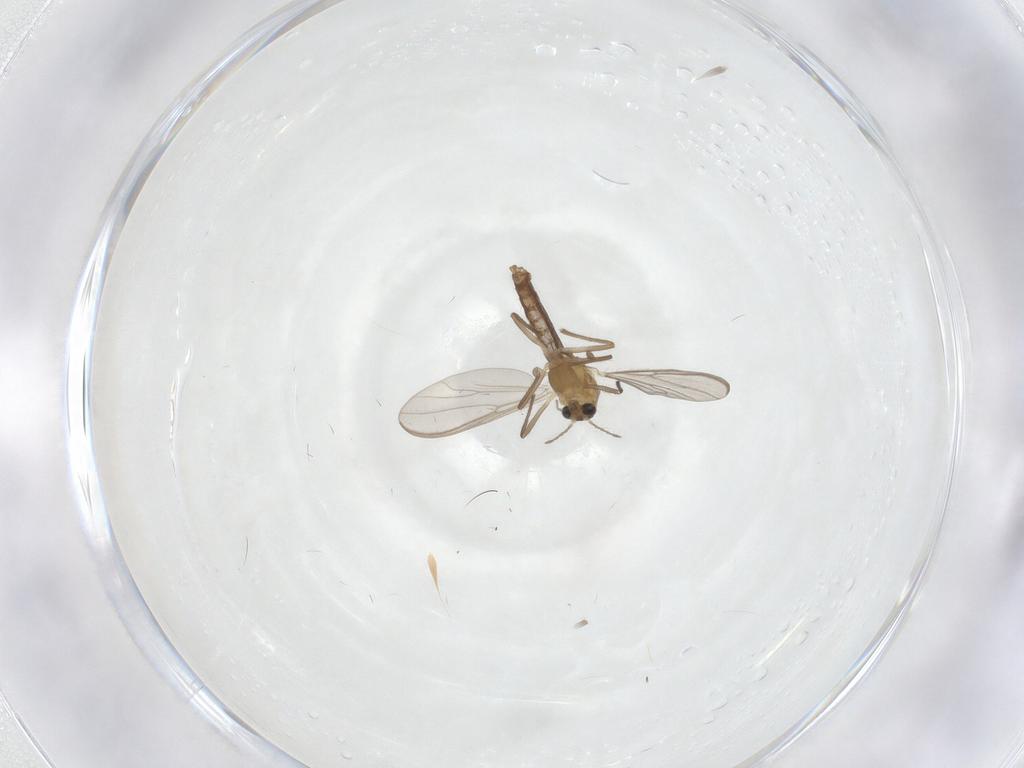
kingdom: Animalia
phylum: Arthropoda
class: Insecta
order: Diptera
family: Chironomidae
